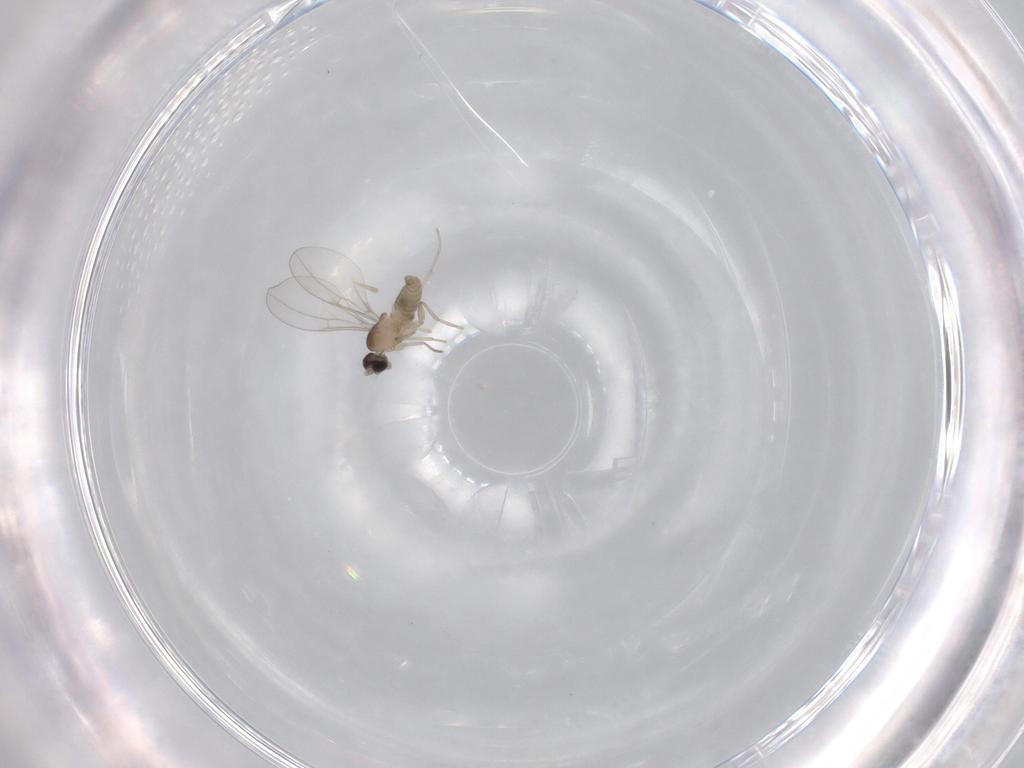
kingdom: Animalia
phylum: Arthropoda
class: Insecta
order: Diptera
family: Cecidomyiidae
